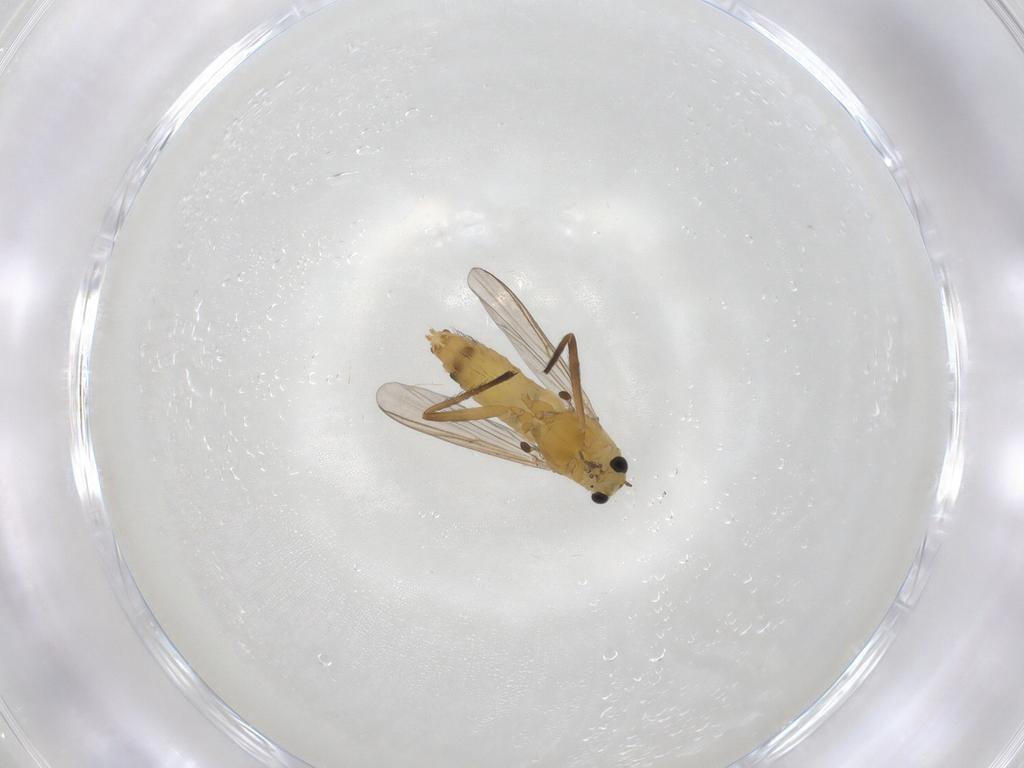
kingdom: Animalia
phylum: Arthropoda
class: Insecta
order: Diptera
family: Chironomidae
